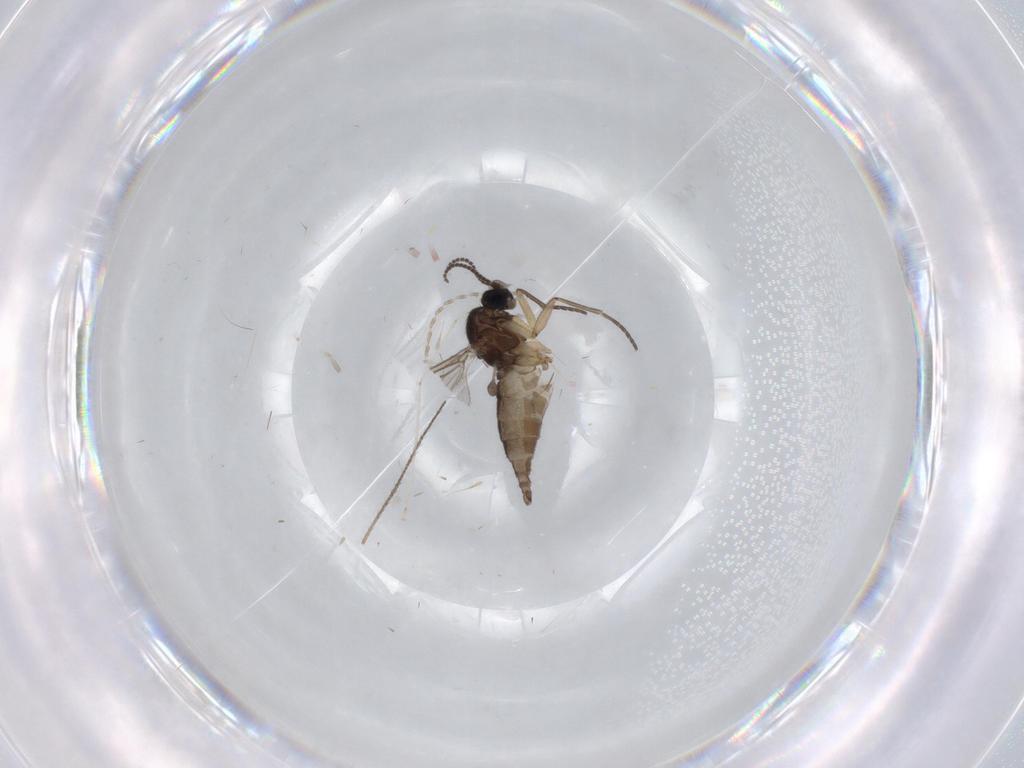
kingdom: Animalia
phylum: Arthropoda
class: Insecta
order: Diptera
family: Sciaridae
